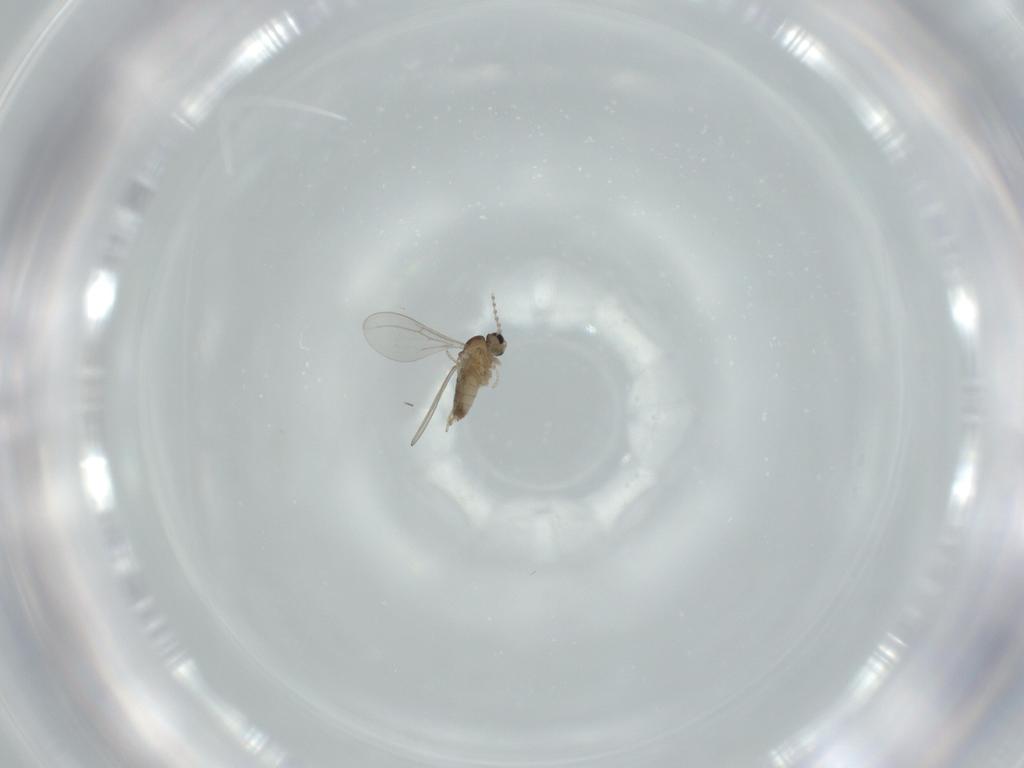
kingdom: Animalia
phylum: Arthropoda
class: Insecta
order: Diptera
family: Cecidomyiidae
